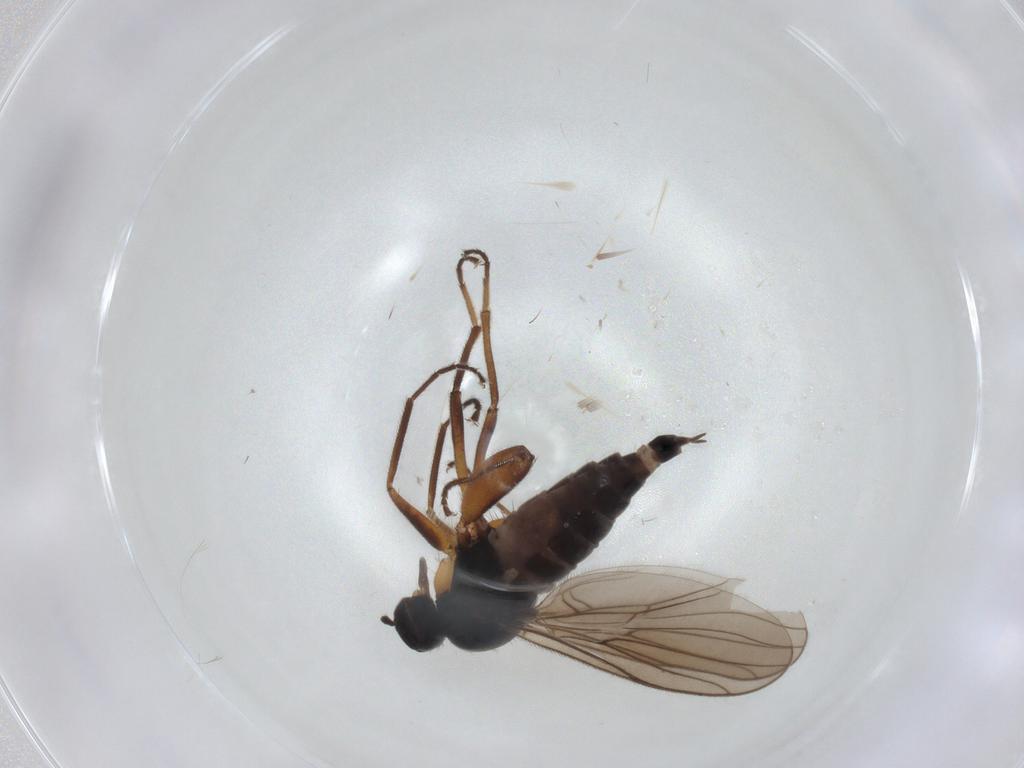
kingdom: Animalia
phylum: Arthropoda
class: Insecta
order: Diptera
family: Hybotidae
